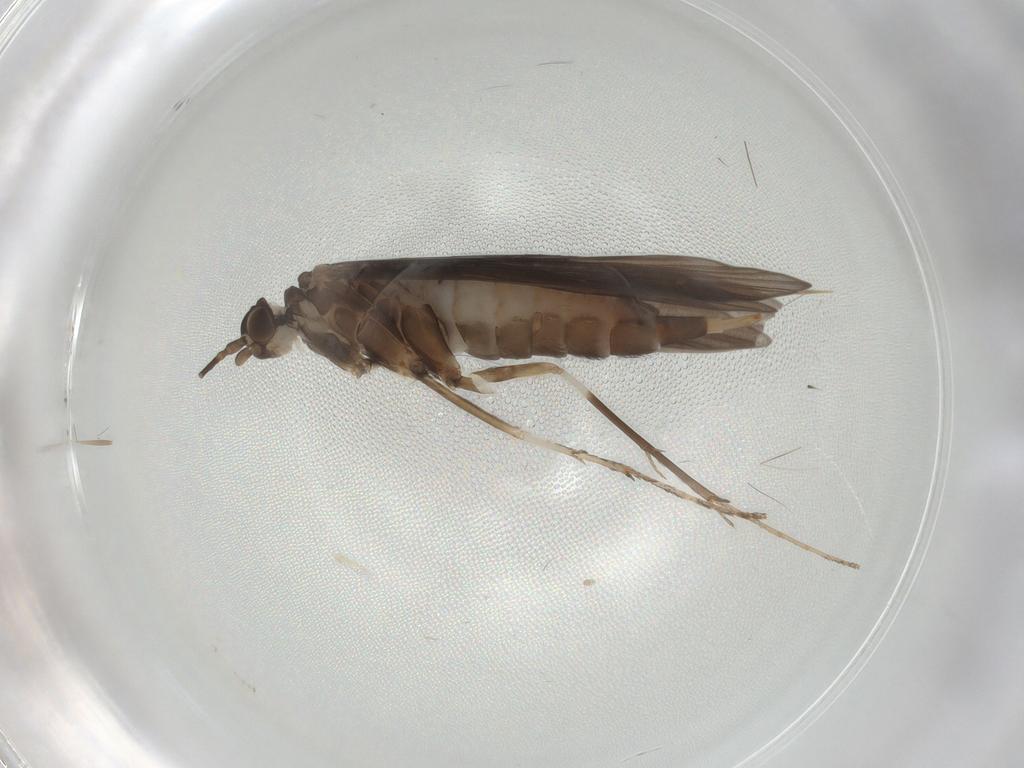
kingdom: Animalia
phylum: Arthropoda
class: Insecta
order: Trichoptera
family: Xiphocentronidae
